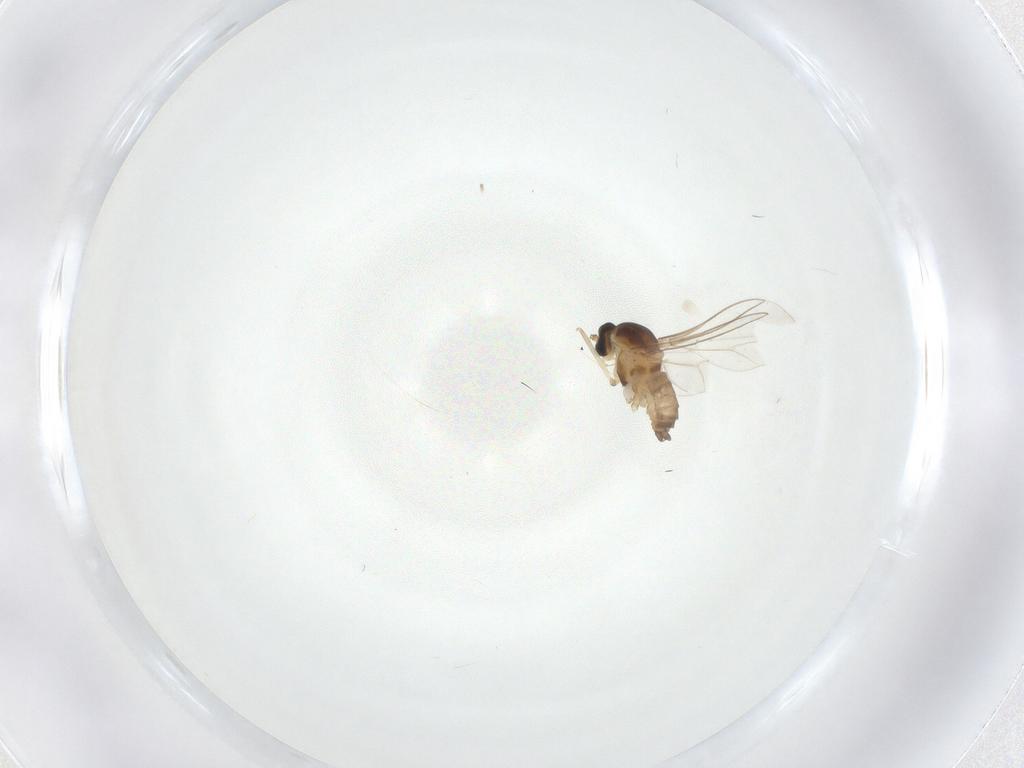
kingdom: Animalia
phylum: Arthropoda
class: Insecta
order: Diptera
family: Cecidomyiidae
